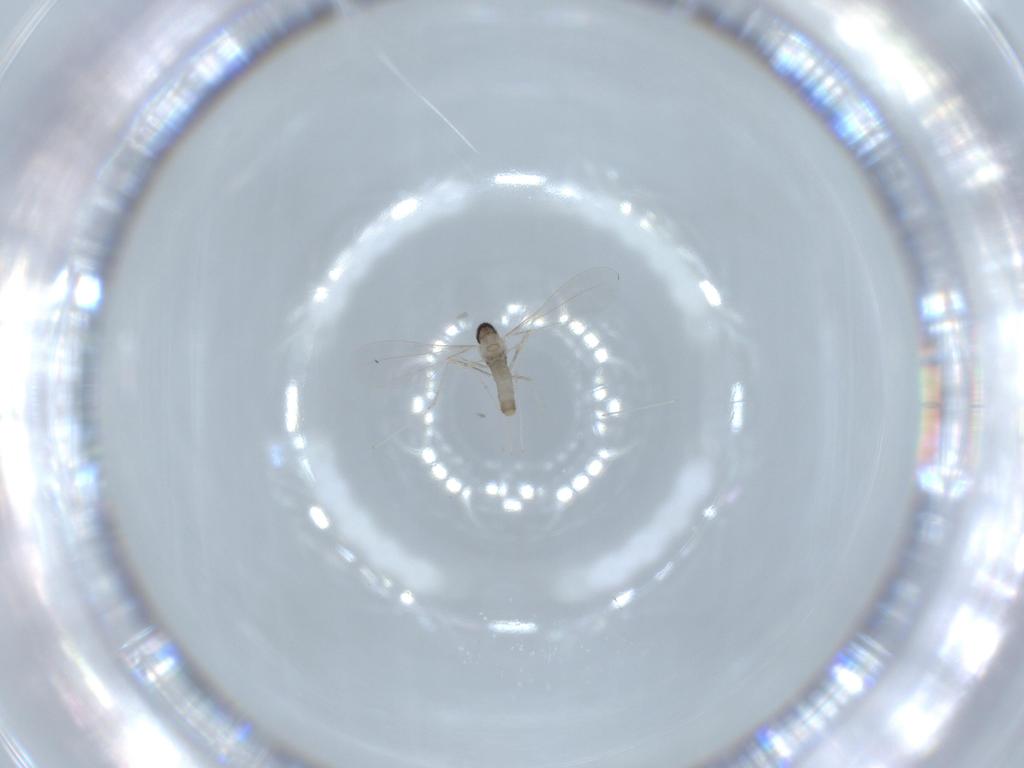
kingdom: Animalia
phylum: Arthropoda
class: Insecta
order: Diptera
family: Cecidomyiidae
